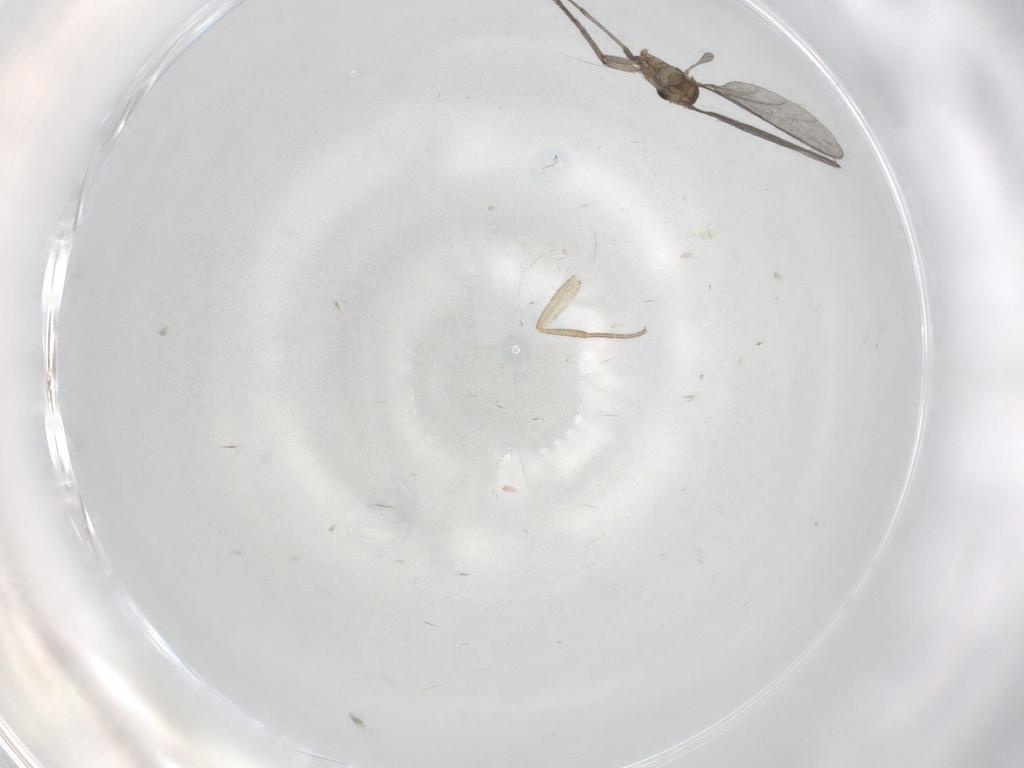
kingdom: Animalia
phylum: Arthropoda
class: Insecta
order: Diptera
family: Phoridae
